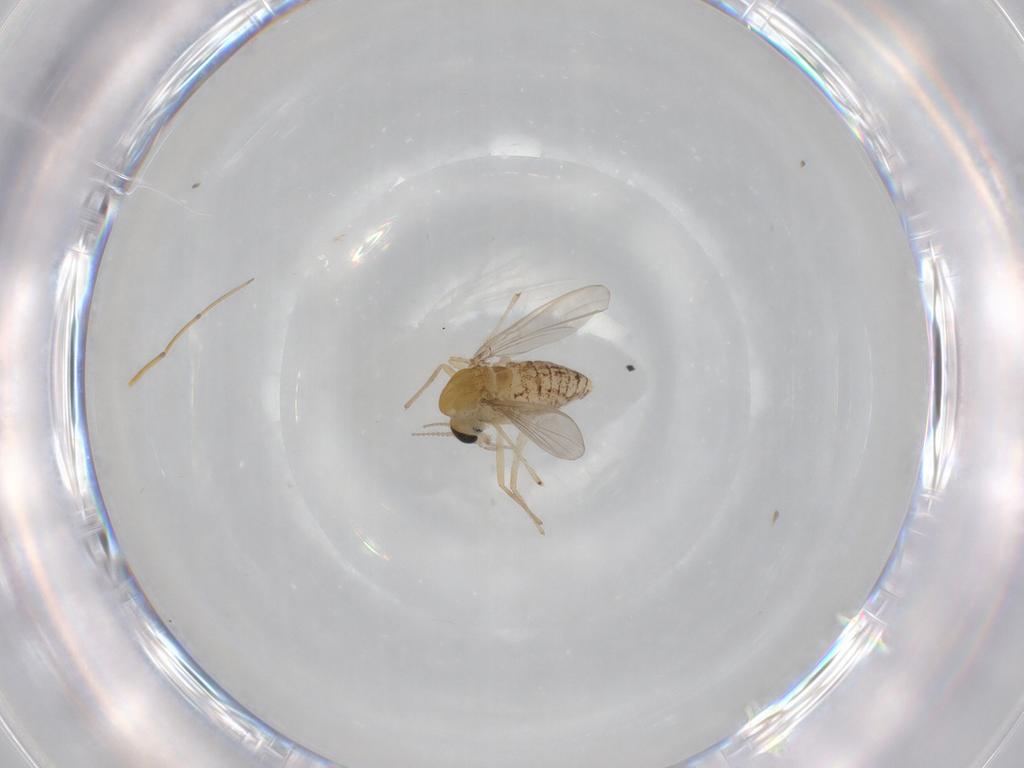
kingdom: Animalia
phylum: Arthropoda
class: Insecta
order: Diptera
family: Chironomidae
